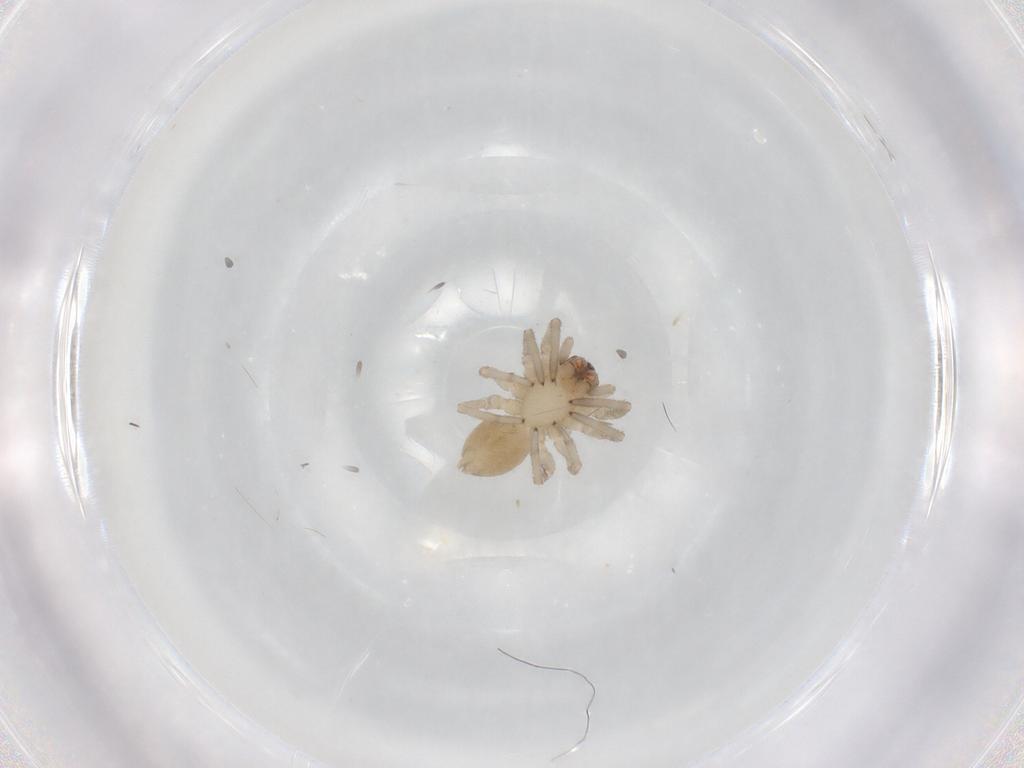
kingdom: Animalia
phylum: Arthropoda
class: Arachnida
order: Araneae
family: Trachelidae
